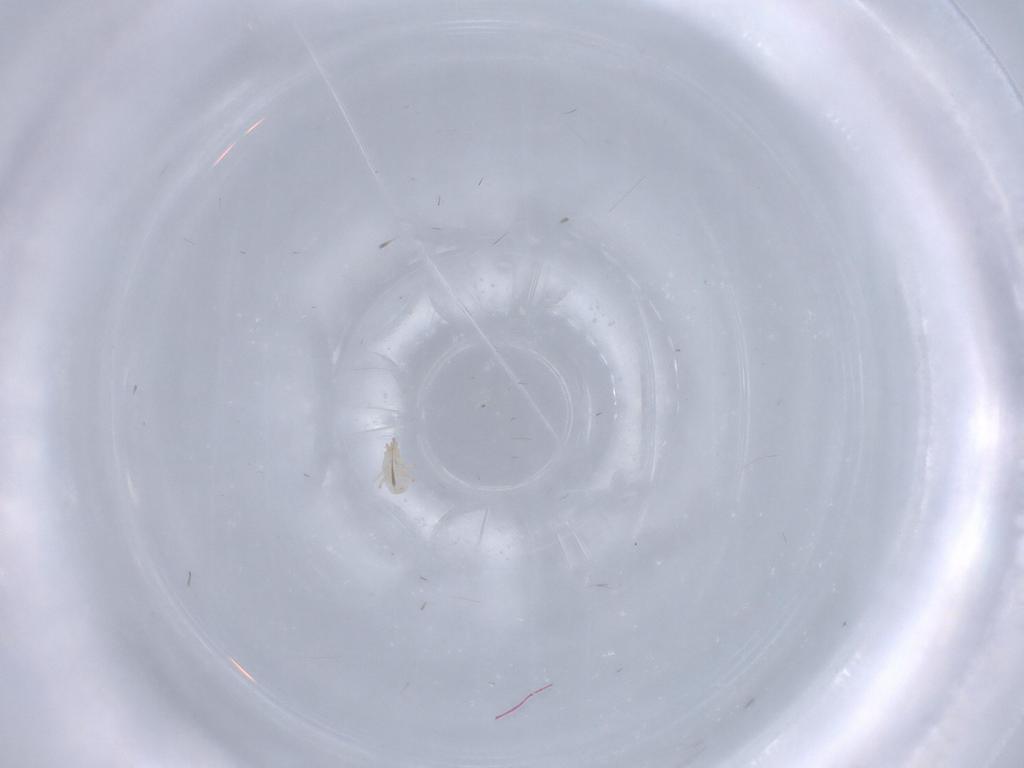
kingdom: Animalia
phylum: Arthropoda
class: Arachnida
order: Mesostigmata
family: Digamasellidae
